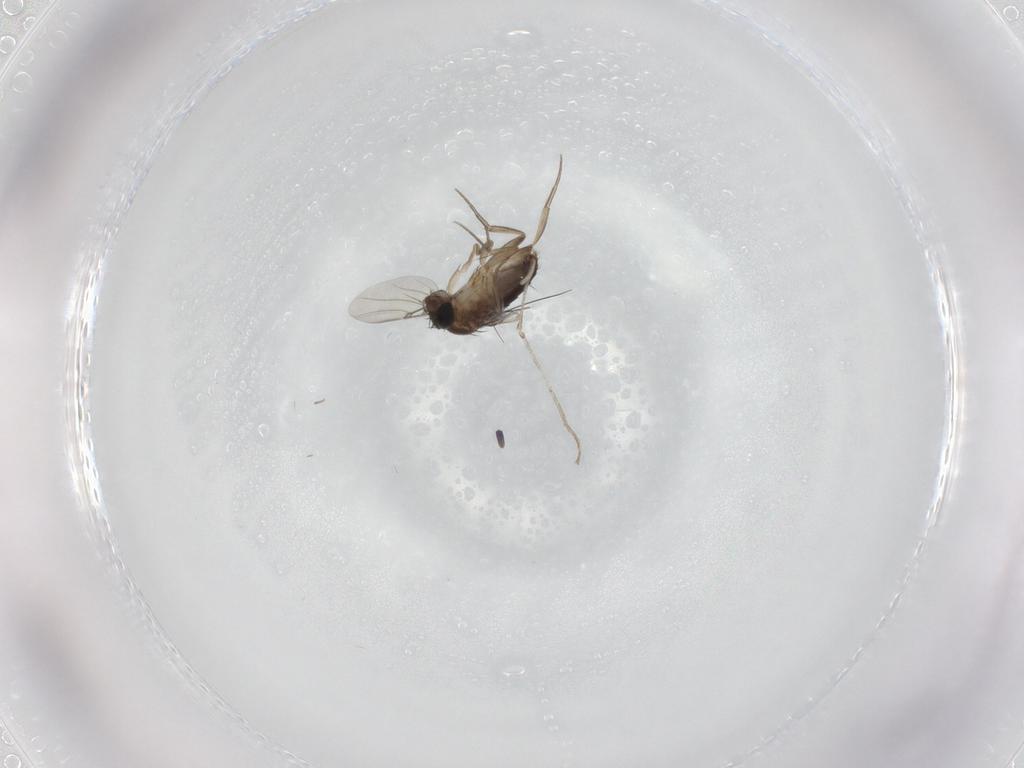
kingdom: Animalia
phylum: Arthropoda
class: Insecta
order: Diptera
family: Phoridae
